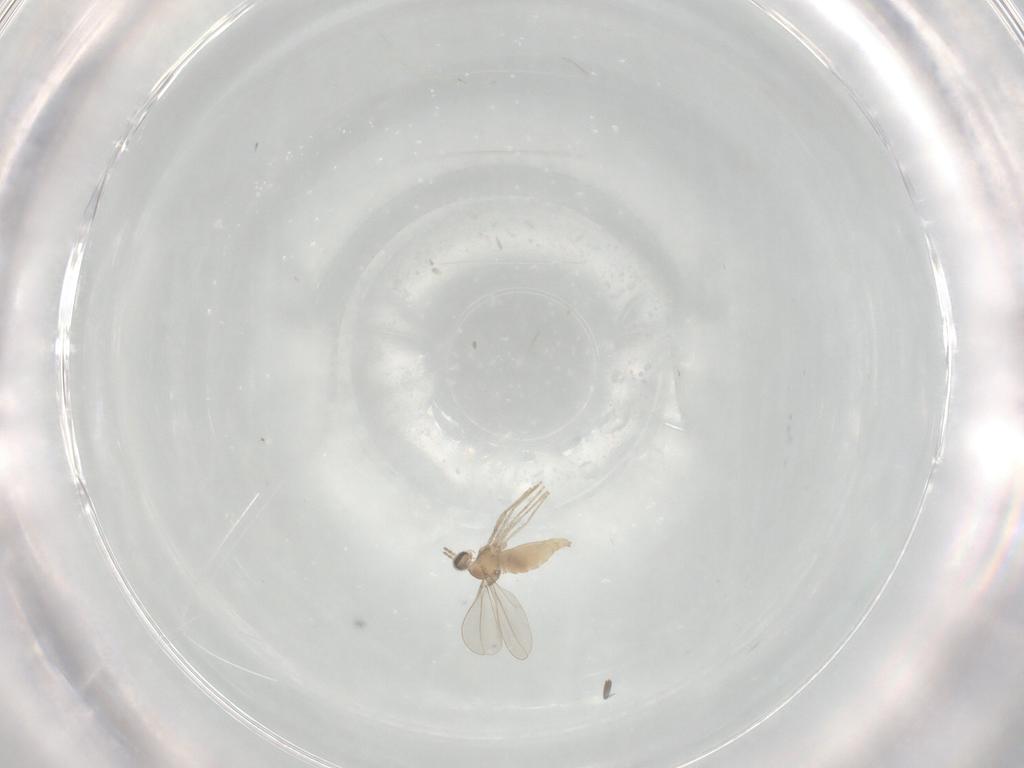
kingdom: Animalia
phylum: Arthropoda
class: Insecta
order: Diptera
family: Cecidomyiidae
